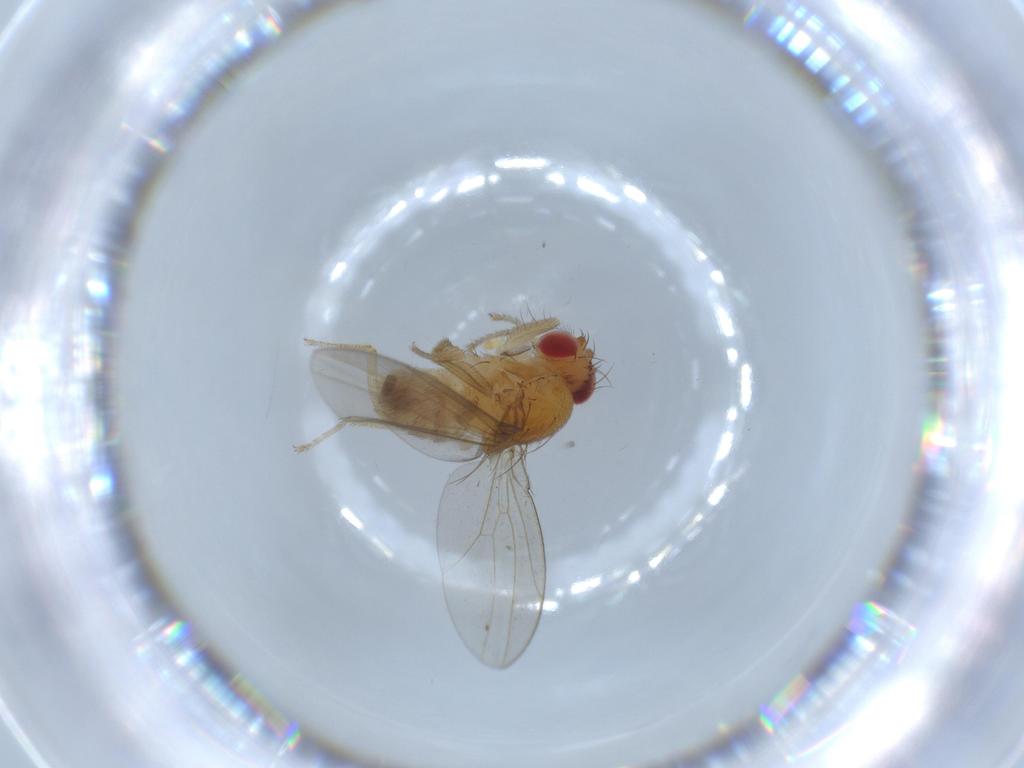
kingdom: Animalia
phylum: Arthropoda
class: Insecta
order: Diptera
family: Drosophilidae
